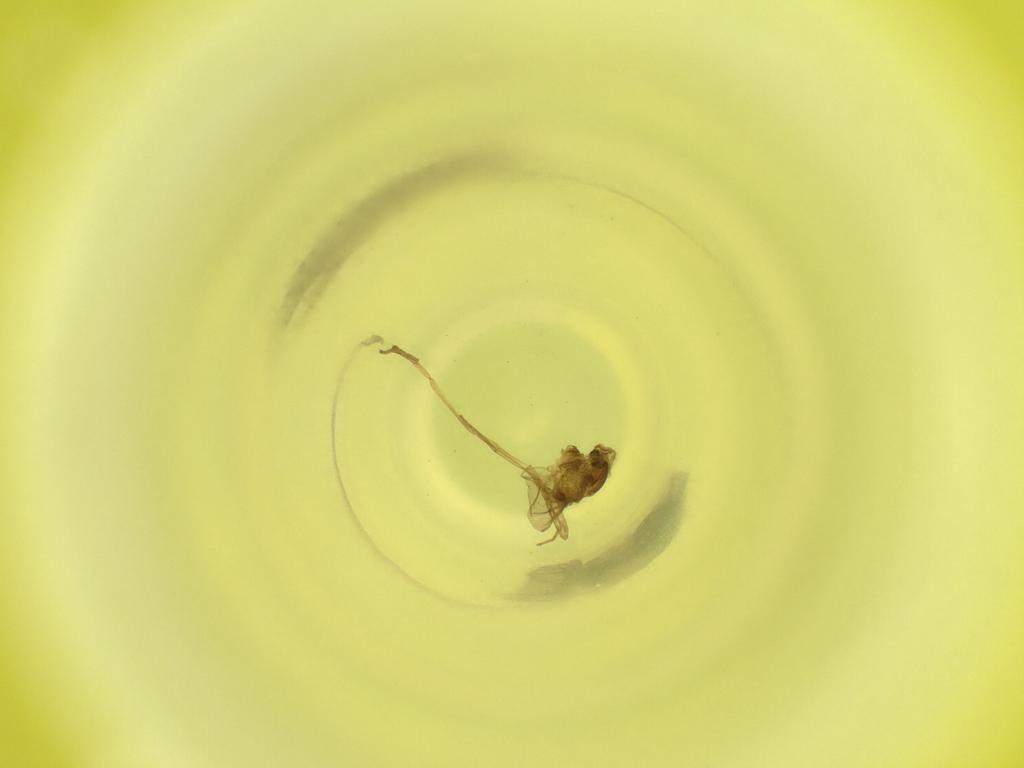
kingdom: Animalia
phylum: Arthropoda
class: Insecta
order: Diptera
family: Cecidomyiidae
